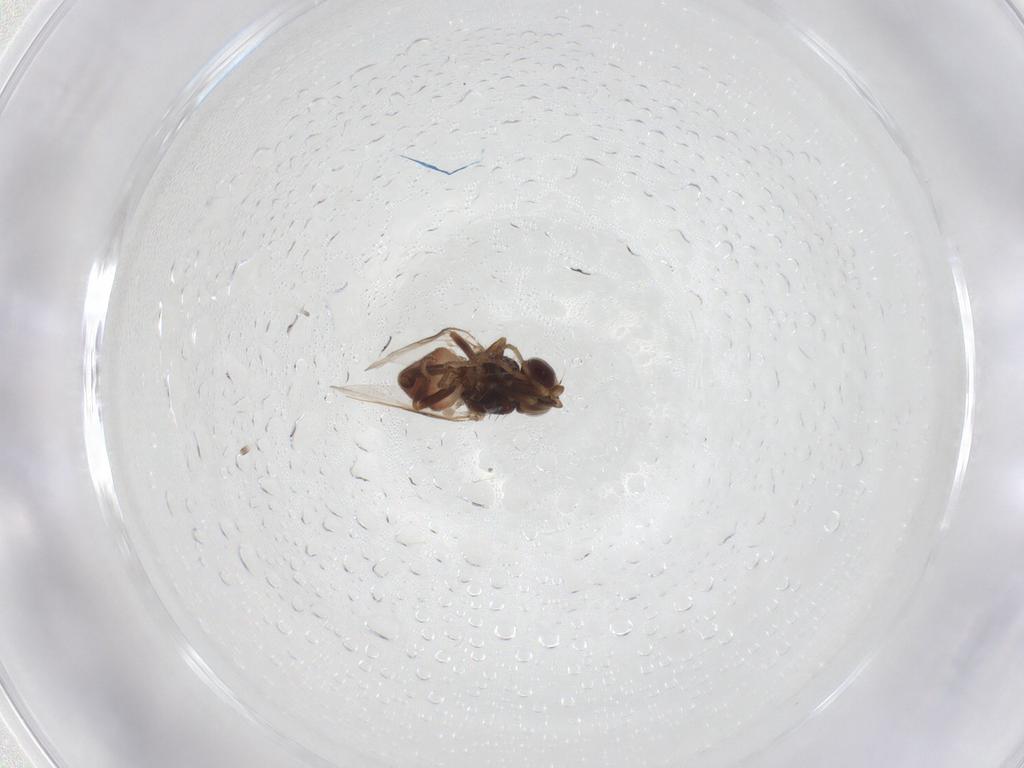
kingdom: Animalia
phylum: Arthropoda
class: Insecta
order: Diptera
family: Chloropidae
